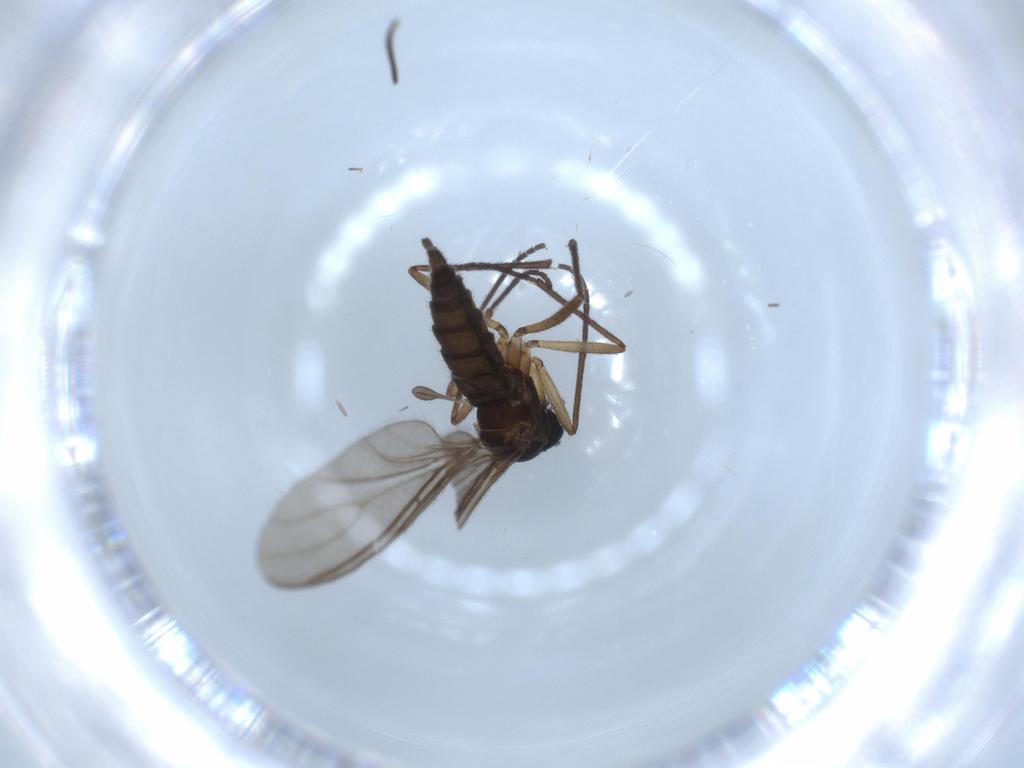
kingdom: Animalia
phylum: Arthropoda
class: Insecta
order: Diptera
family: Sciaridae
